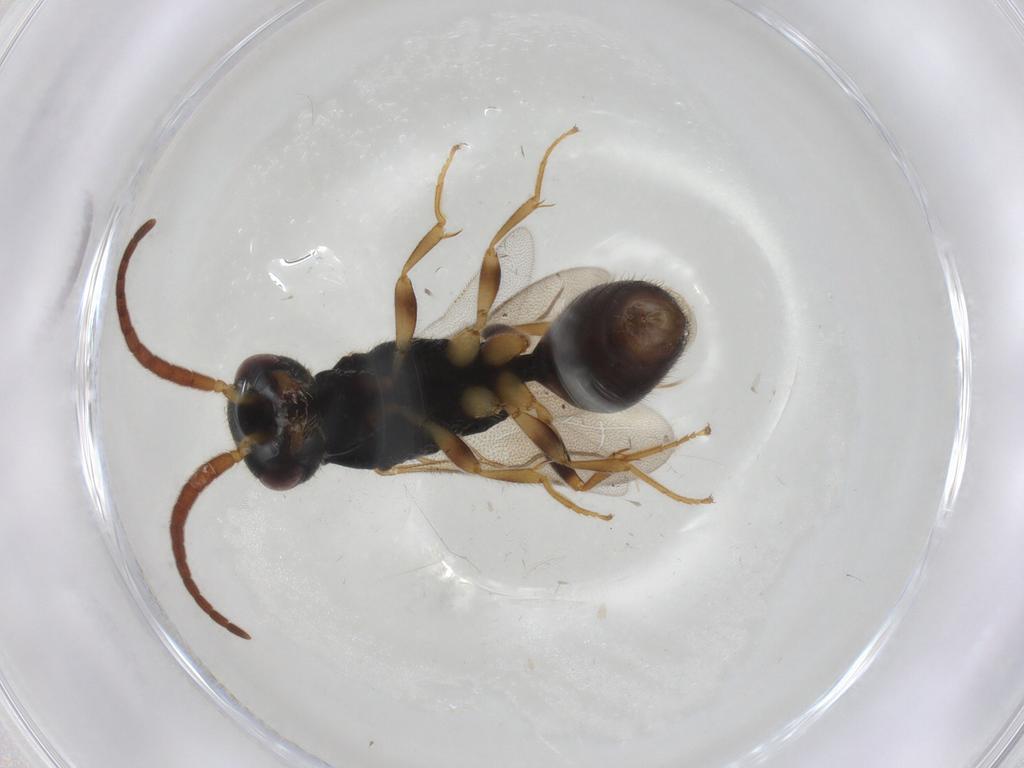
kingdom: Animalia
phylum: Arthropoda
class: Insecta
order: Hymenoptera
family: Bethylidae
